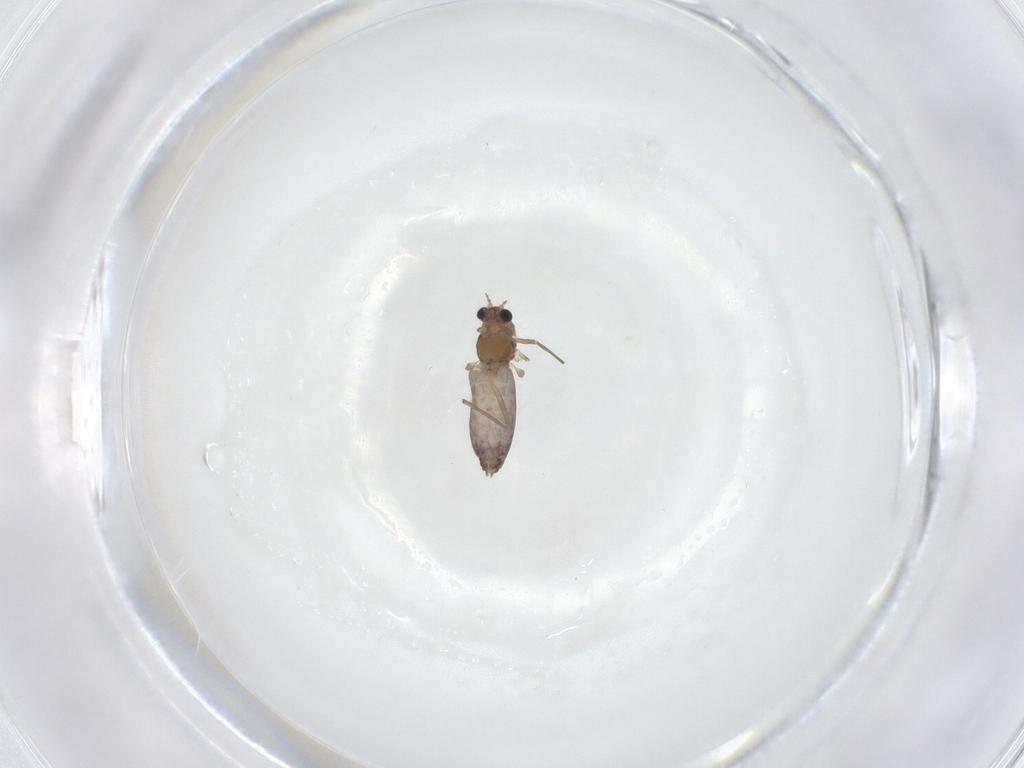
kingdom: Animalia
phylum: Arthropoda
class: Insecta
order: Diptera
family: Chironomidae
